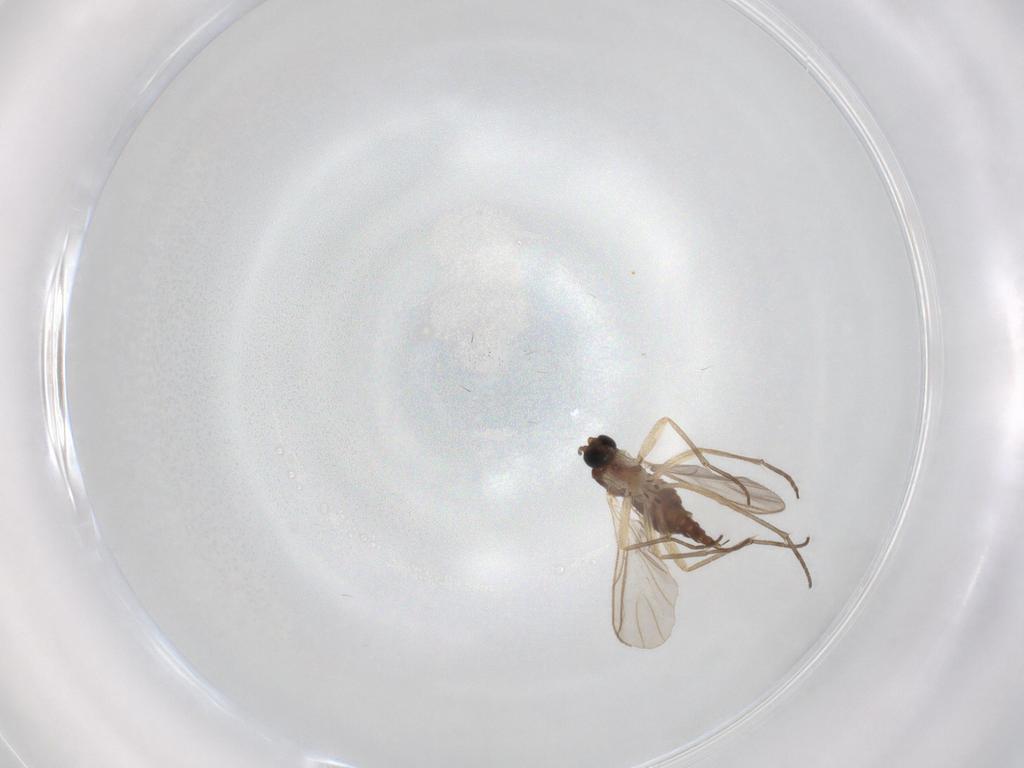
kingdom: Animalia
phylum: Arthropoda
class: Insecta
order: Diptera
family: Sciaridae
